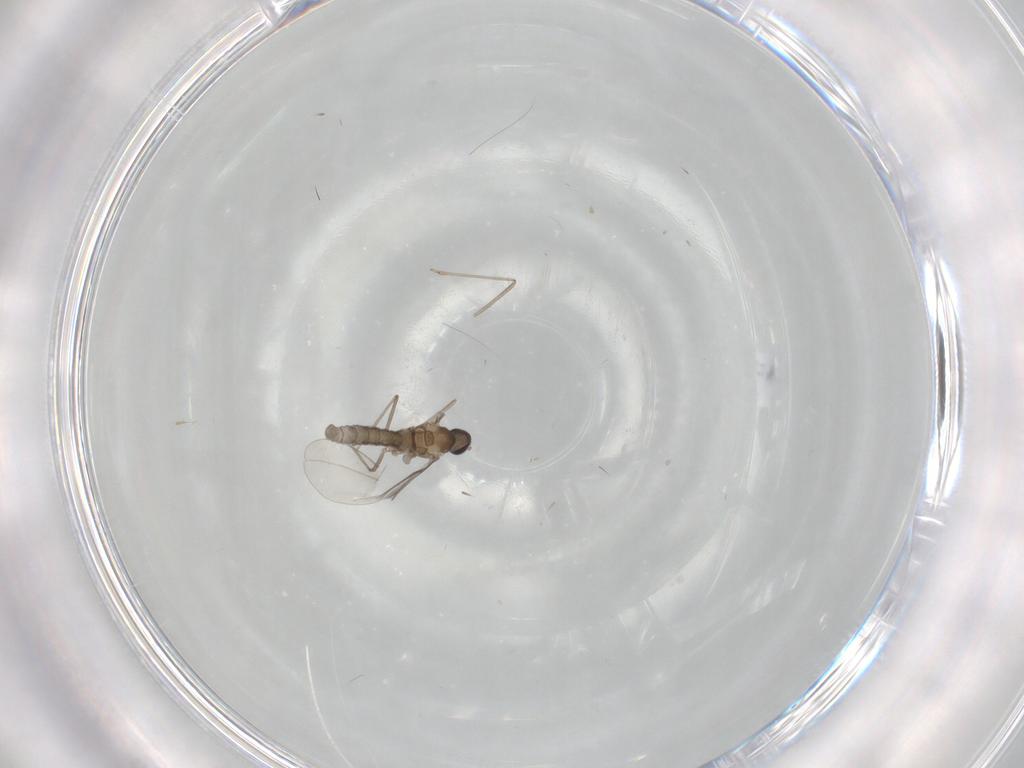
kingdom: Animalia
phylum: Arthropoda
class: Insecta
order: Diptera
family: Cecidomyiidae
